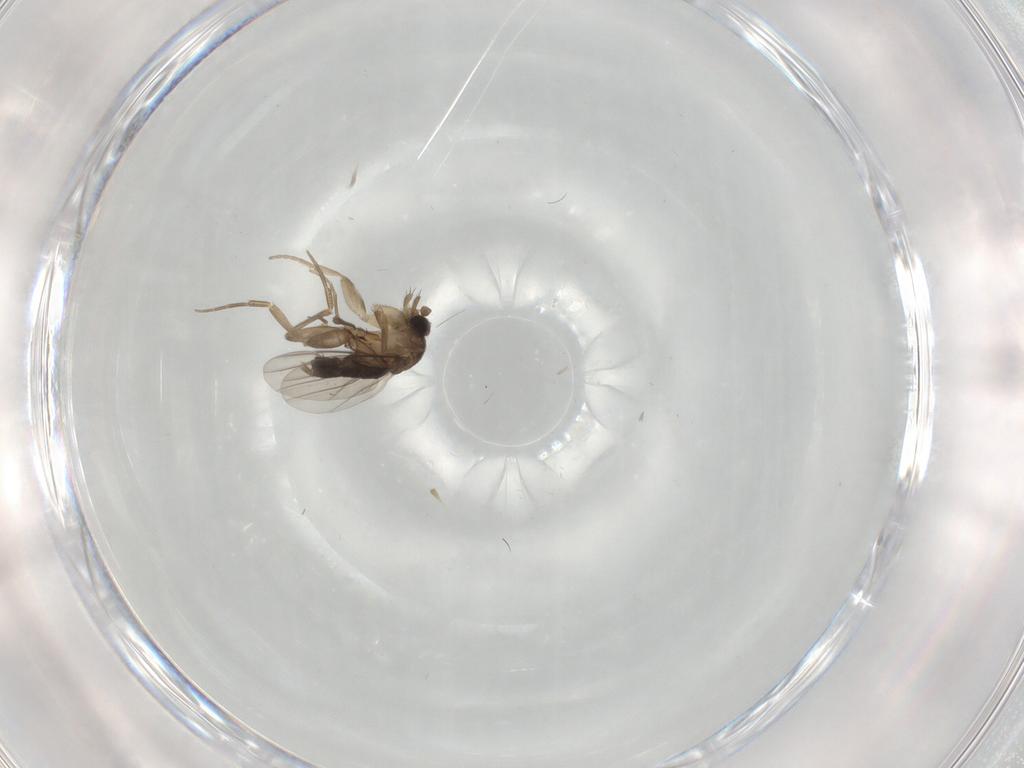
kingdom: Animalia
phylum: Arthropoda
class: Insecta
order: Diptera
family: Phoridae
